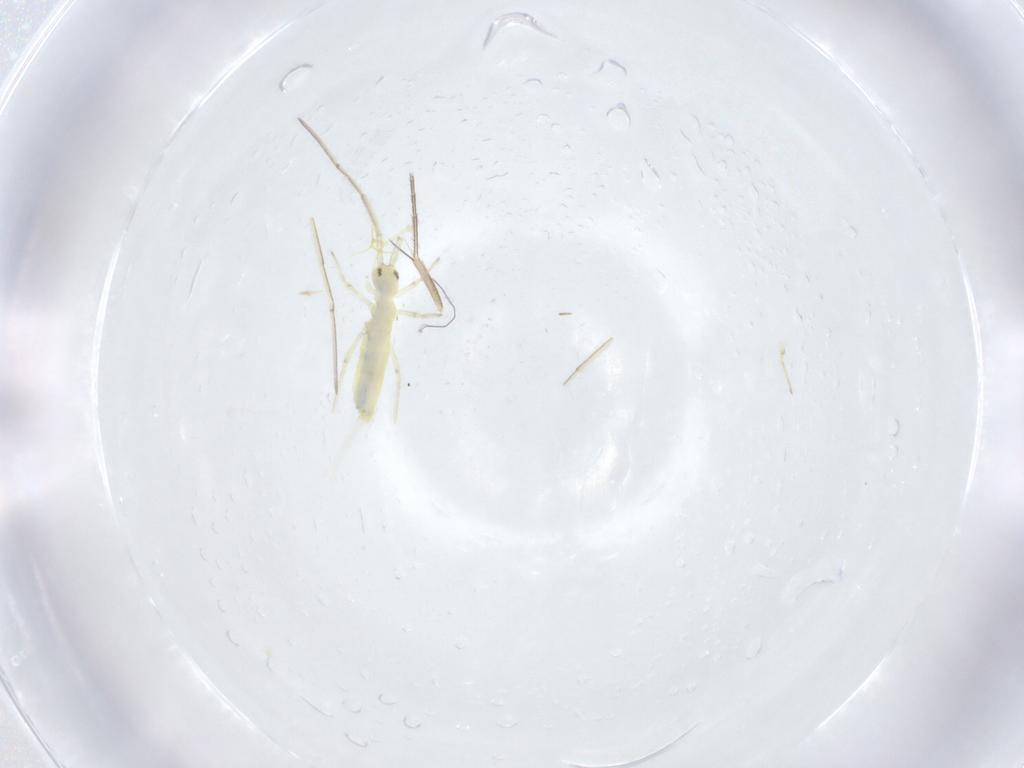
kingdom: Animalia
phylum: Arthropoda
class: Insecta
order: Diptera
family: Chironomidae
